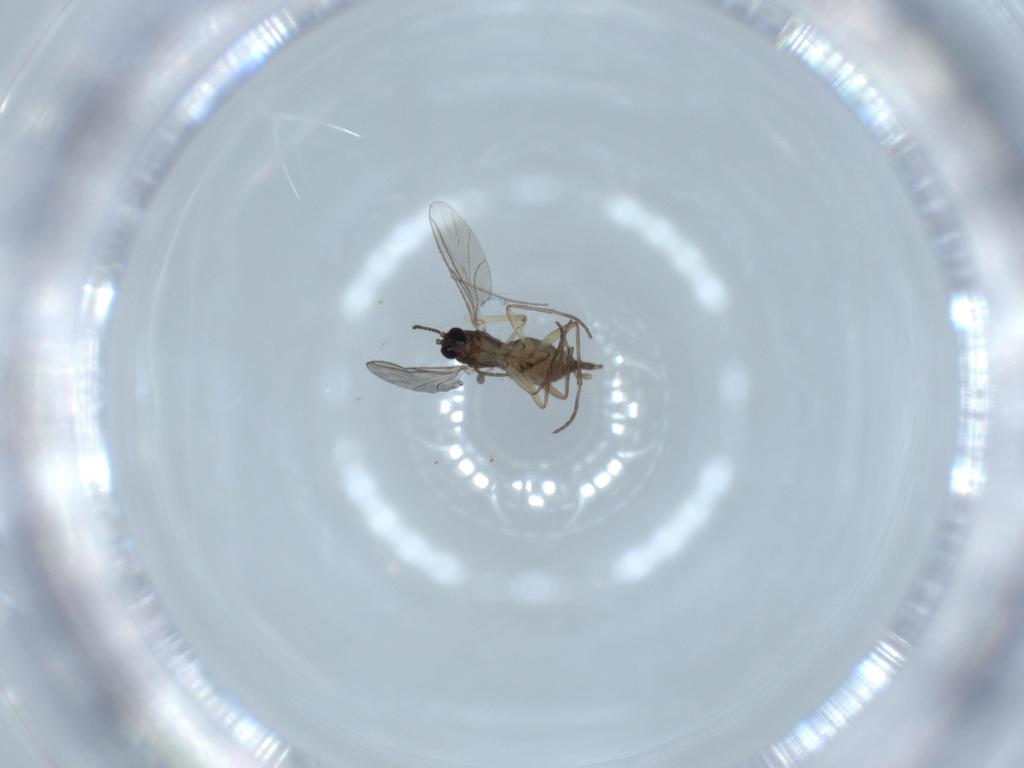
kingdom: Animalia
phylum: Arthropoda
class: Insecta
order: Diptera
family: Sciaridae
